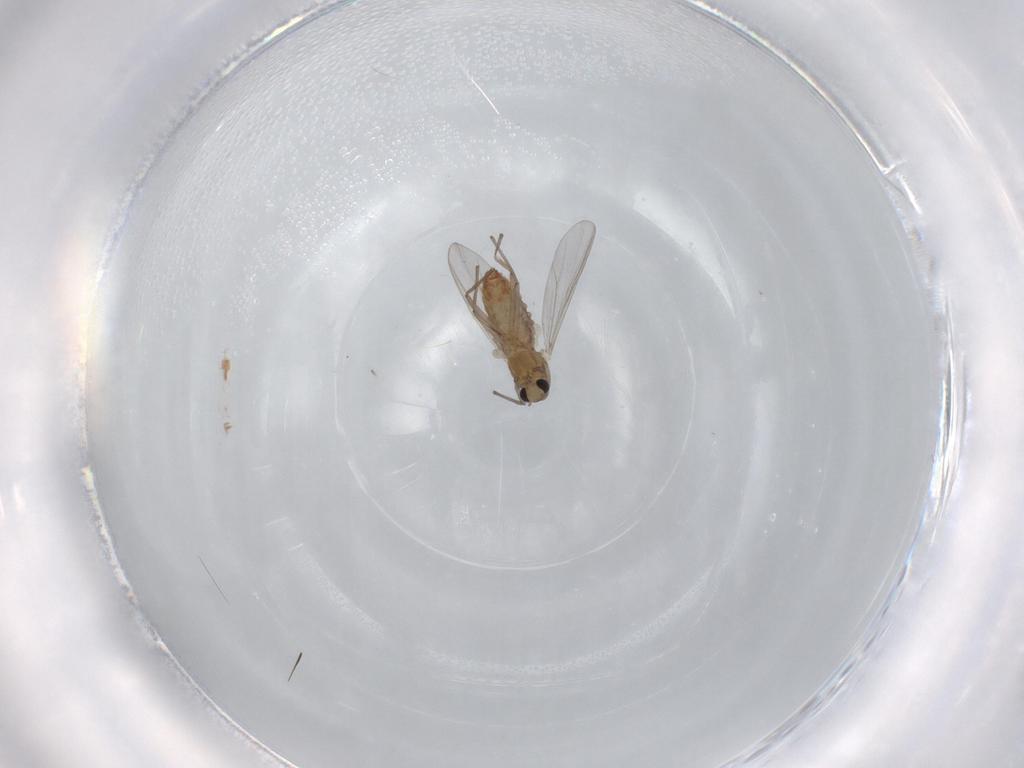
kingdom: Animalia
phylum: Arthropoda
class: Insecta
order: Diptera
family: Chironomidae
